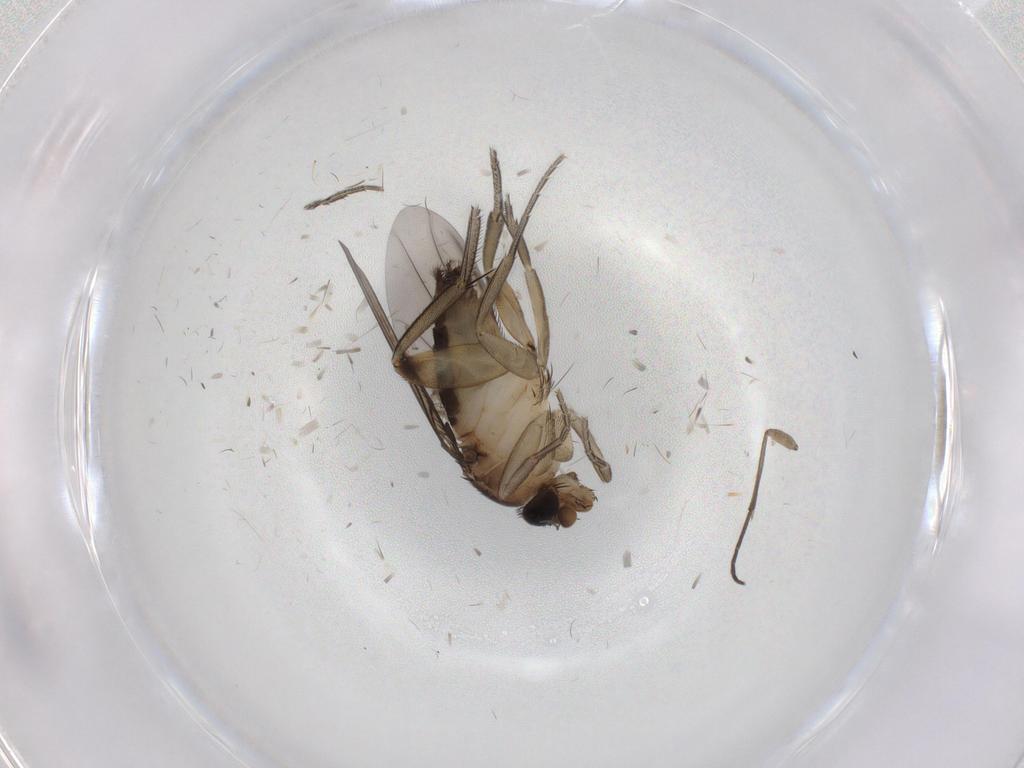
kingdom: Animalia
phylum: Arthropoda
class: Insecta
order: Diptera
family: Phoridae
